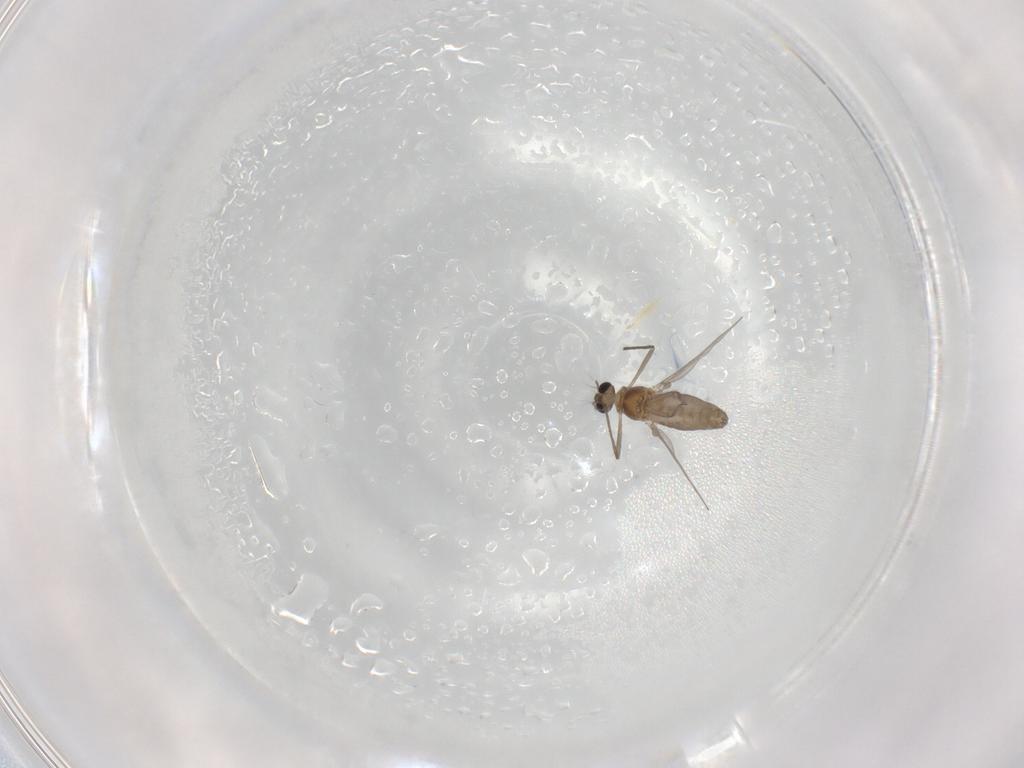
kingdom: Animalia
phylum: Arthropoda
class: Insecta
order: Diptera
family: Chironomidae
